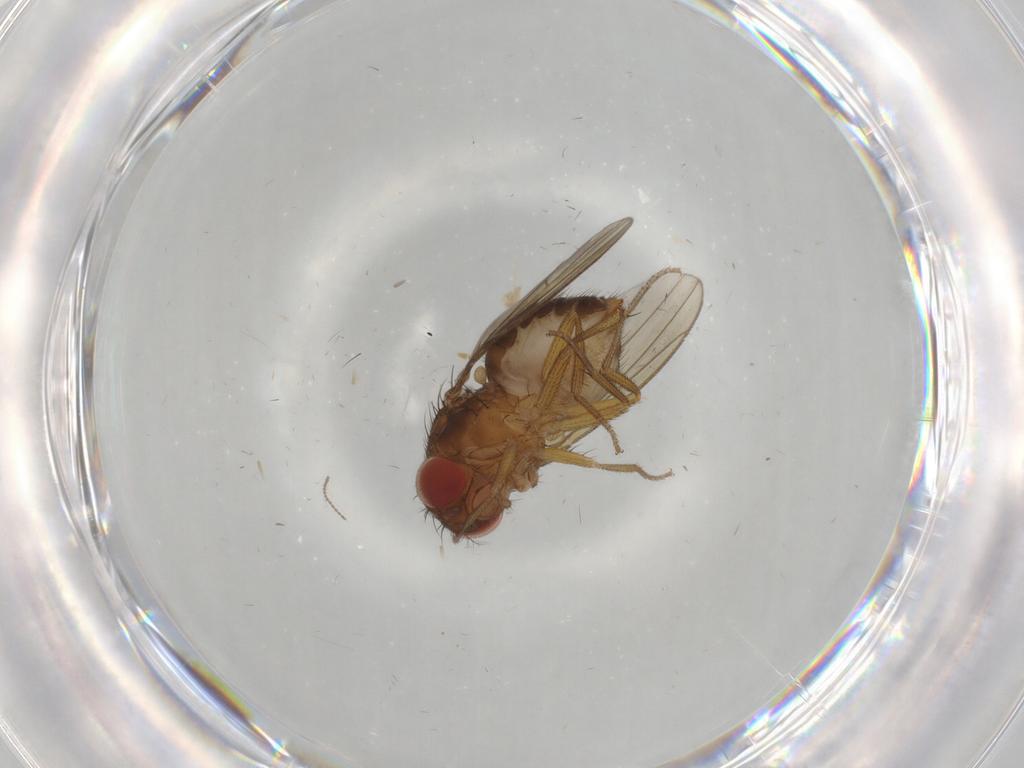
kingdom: Animalia
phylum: Arthropoda
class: Insecta
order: Diptera
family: Drosophilidae
